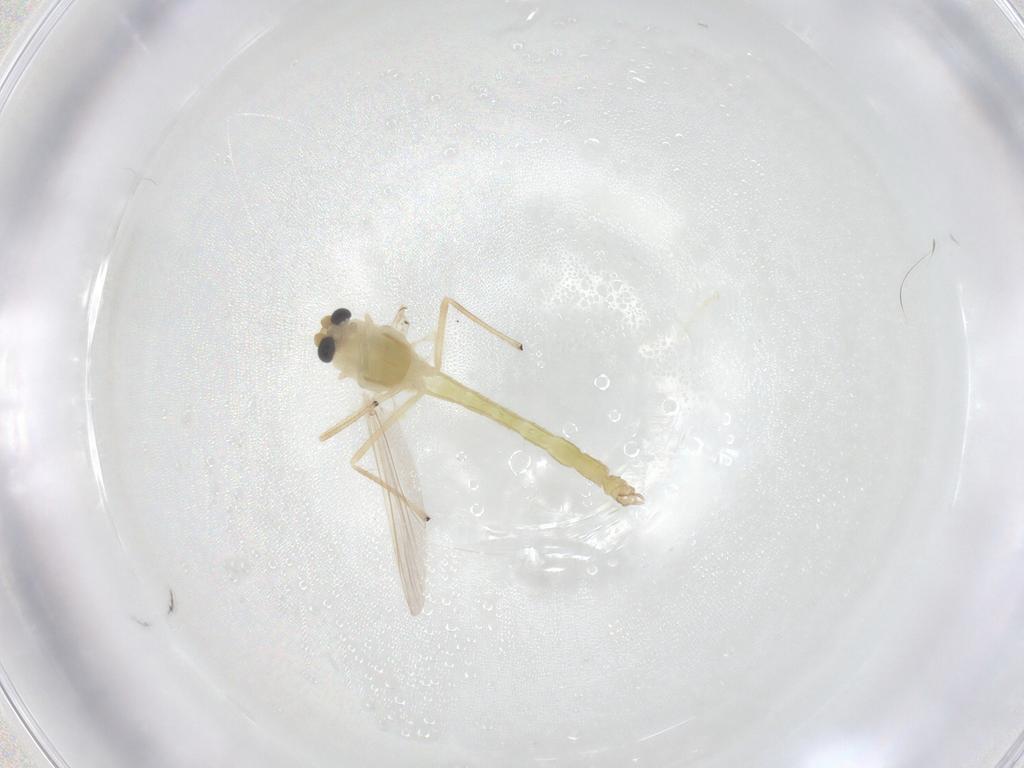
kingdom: Animalia
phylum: Arthropoda
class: Insecta
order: Diptera
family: Chironomidae
